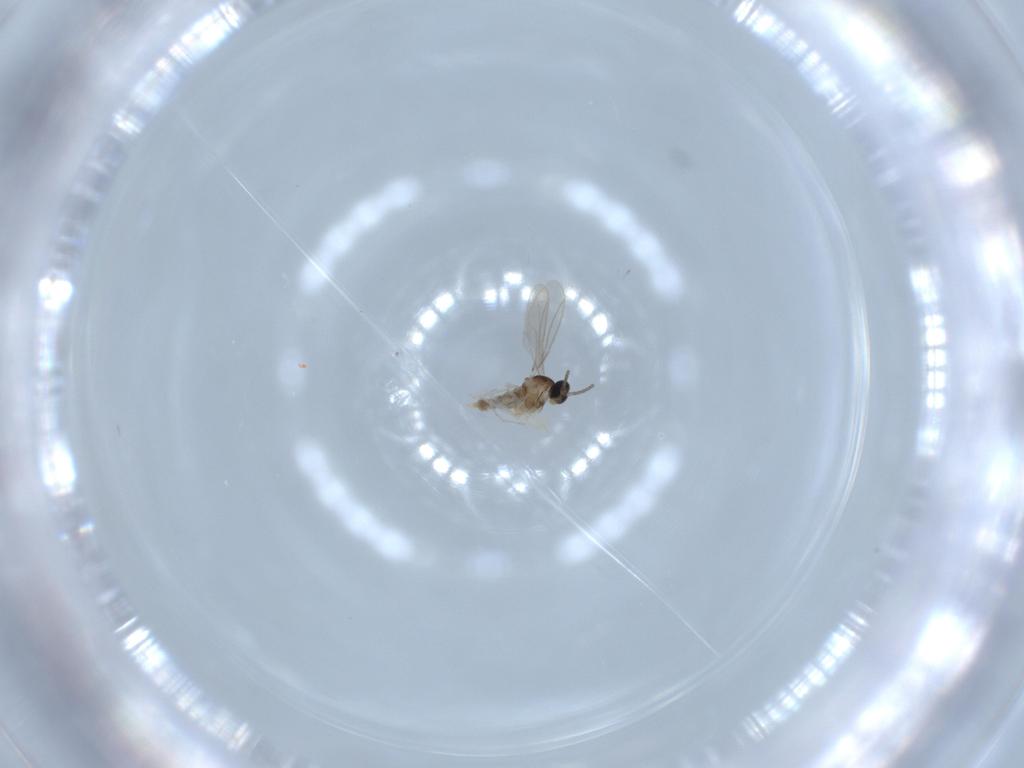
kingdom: Animalia
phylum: Arthropoda
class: Insecta
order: Diptera
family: Cecidomyiidae
